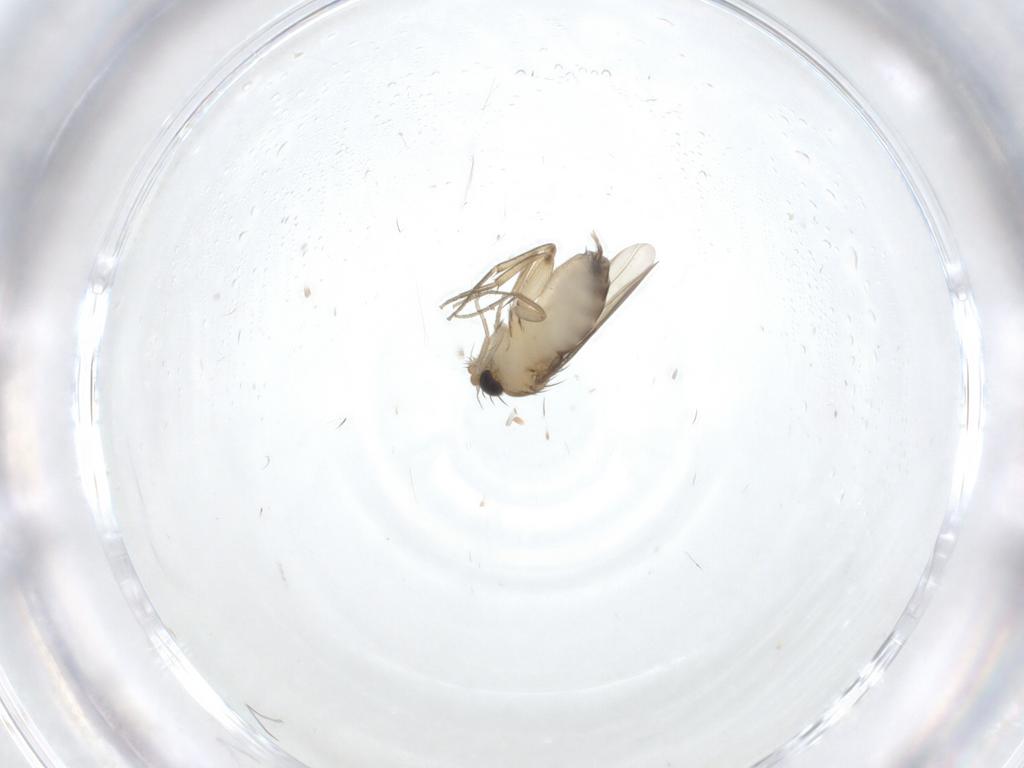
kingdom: Animalia
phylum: Arthropoda
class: Insecta
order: Diptera
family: Phoridae
